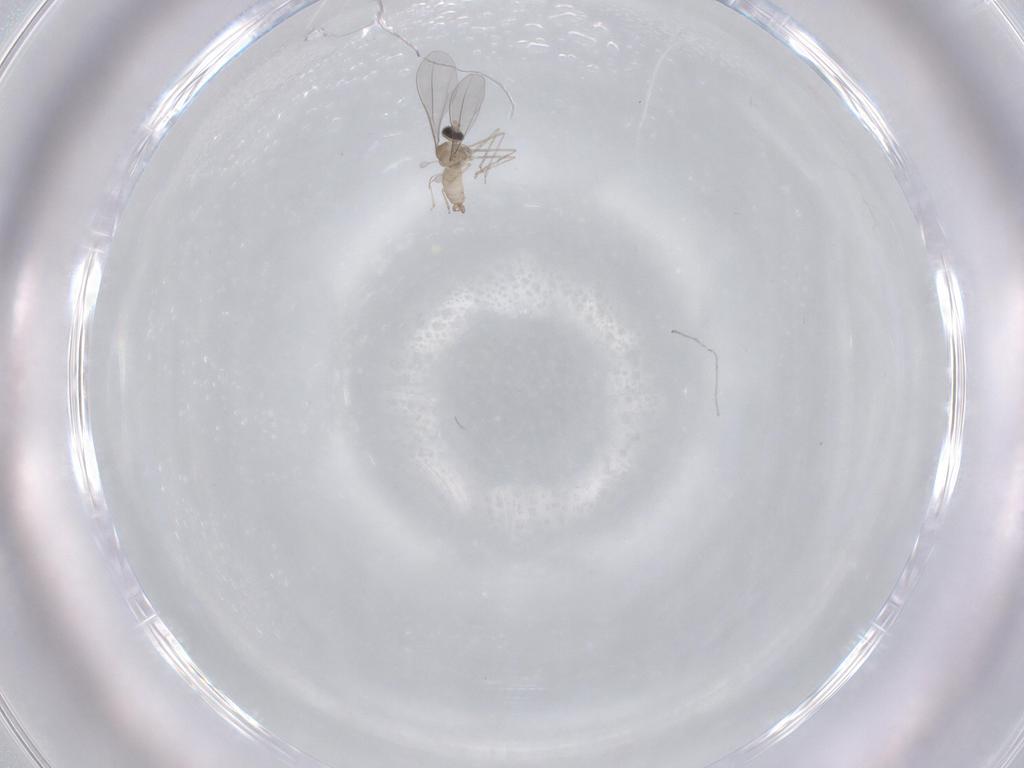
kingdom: Animalia
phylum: Arthropoda
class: Insecta
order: Diptera
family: Cecidomyiidae
